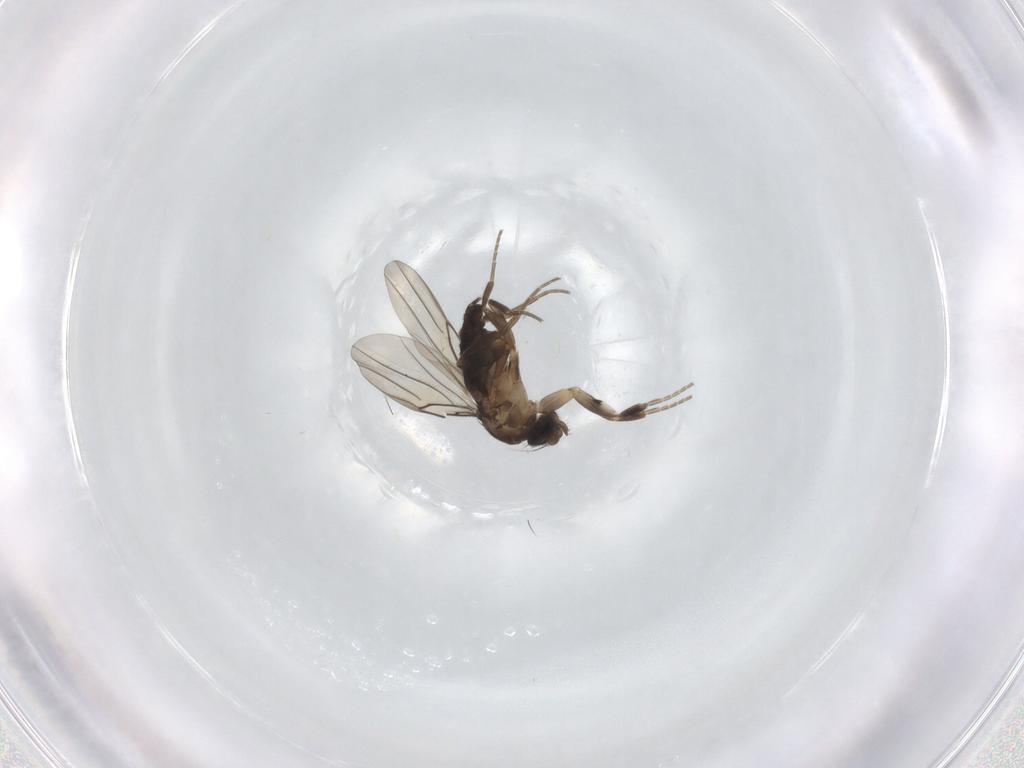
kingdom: Animalia
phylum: Arthropoda
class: Insecta
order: Diptera
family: Phoridae
